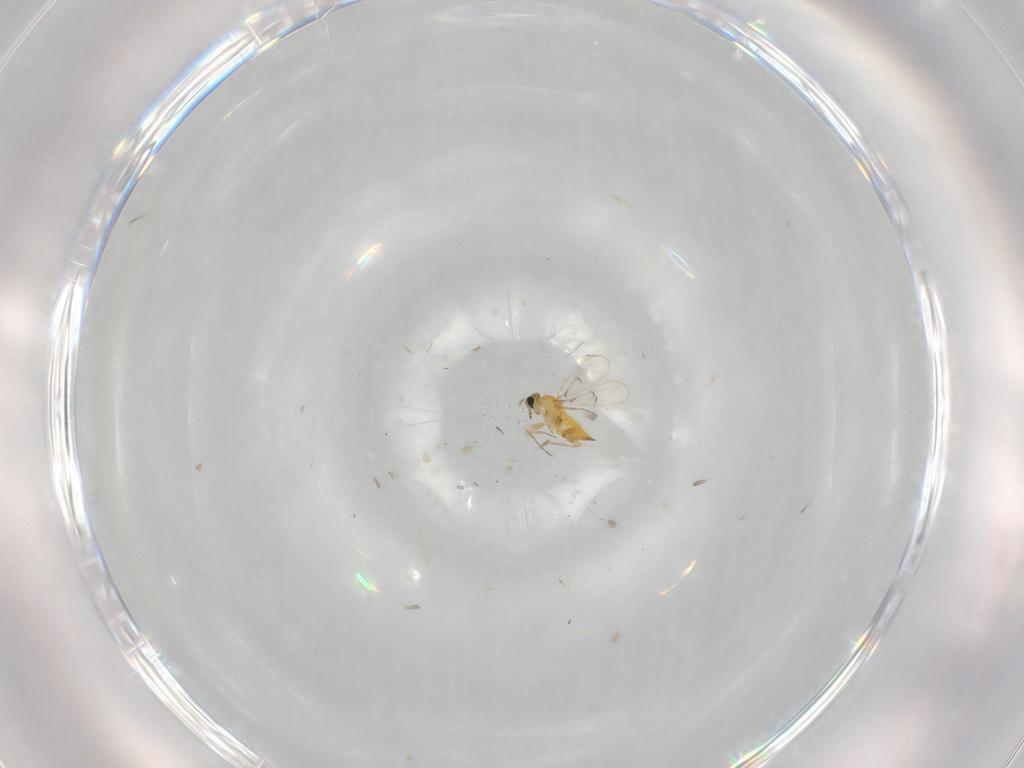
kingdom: Animalia
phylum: Arthropoda
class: Insecta
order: Hymenoptera
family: Trichogrammatidae
